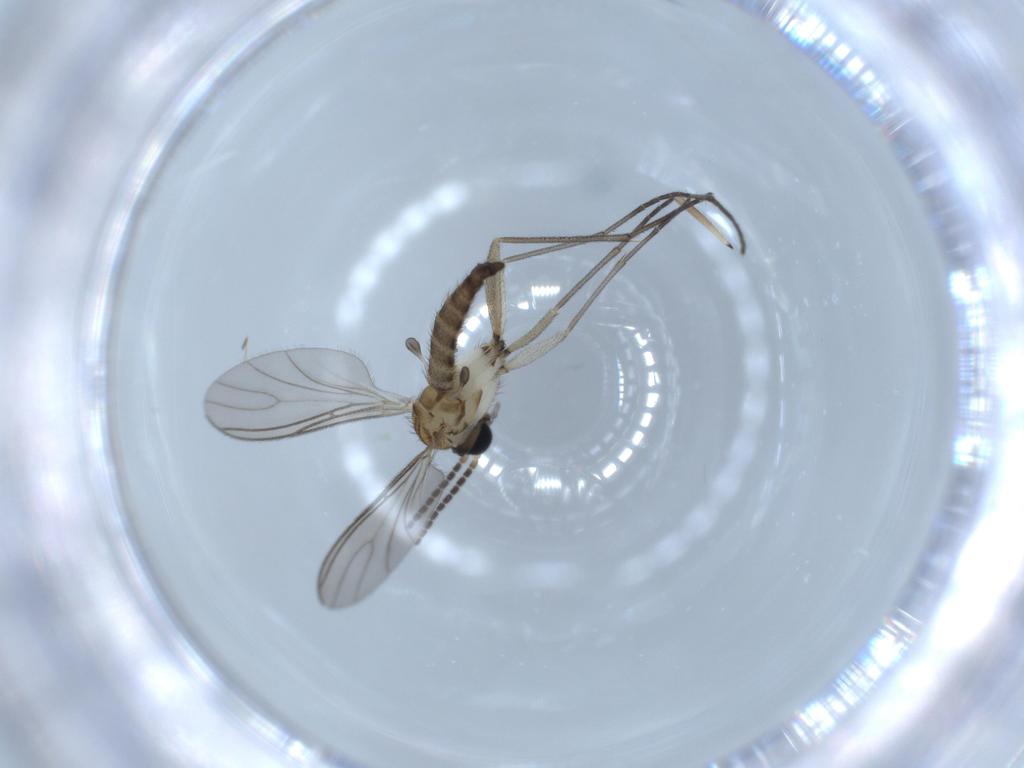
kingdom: Animalia
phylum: Arthropoda
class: Insecta
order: Diptera
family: Sciaridae
